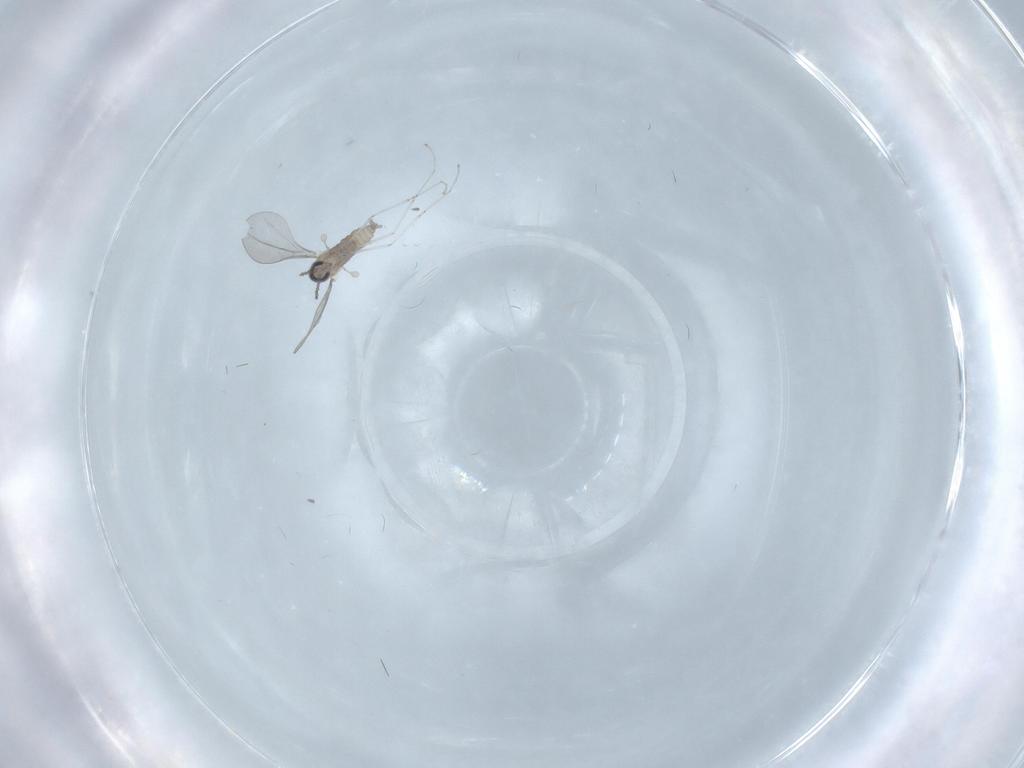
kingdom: Animalia
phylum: Arthropoda
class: Insecta
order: Diptera
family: Cecidomyiidae
